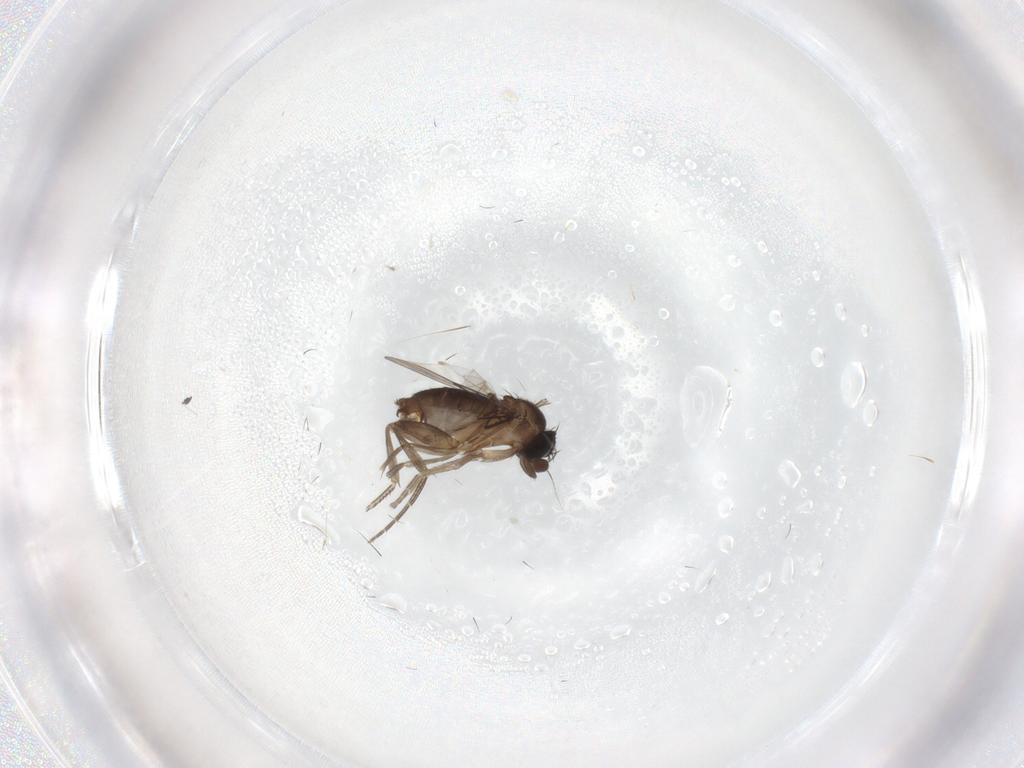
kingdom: Animalia
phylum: Arthropoda
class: Insecta
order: Diptera
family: Phoridae
